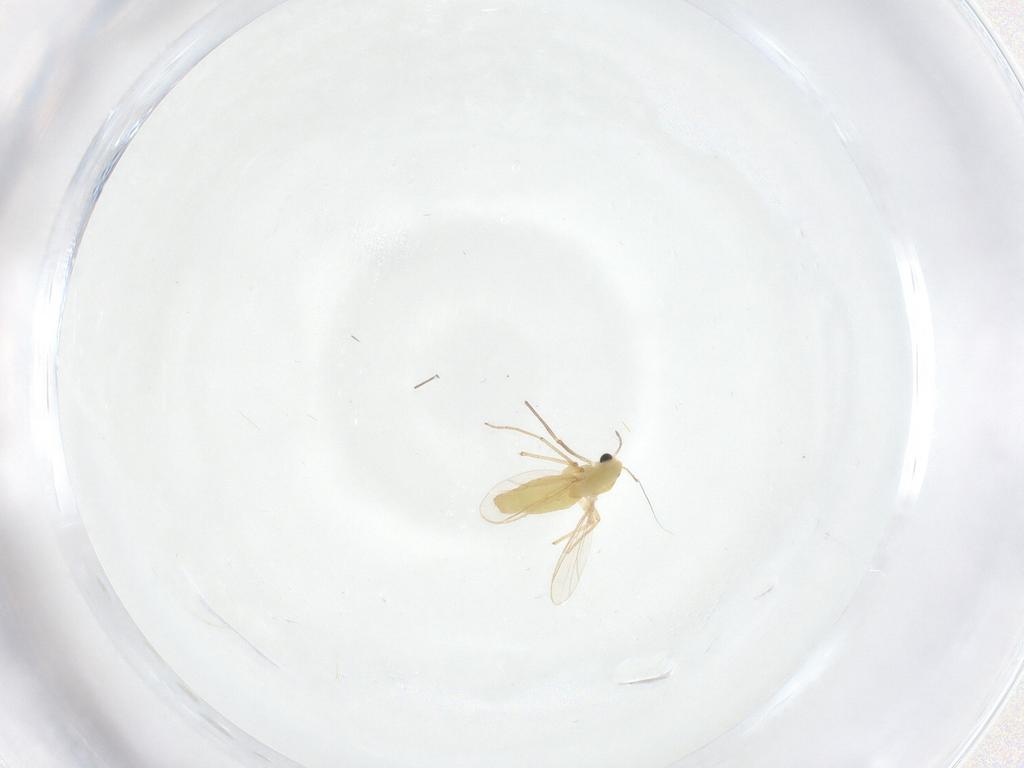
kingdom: Animalia
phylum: Arthropoda
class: Insecta
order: Diptera
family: Chironomidae
